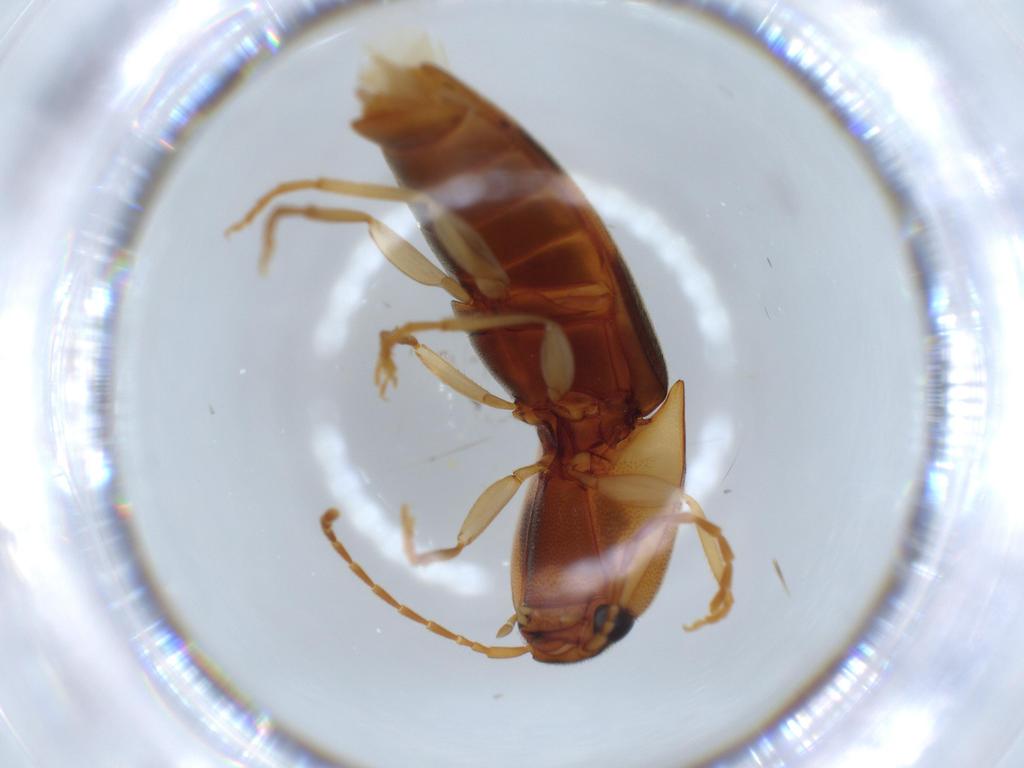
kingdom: Animalia
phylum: Arthropoda
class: Insecta
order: Coleoptera
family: Elateridae
